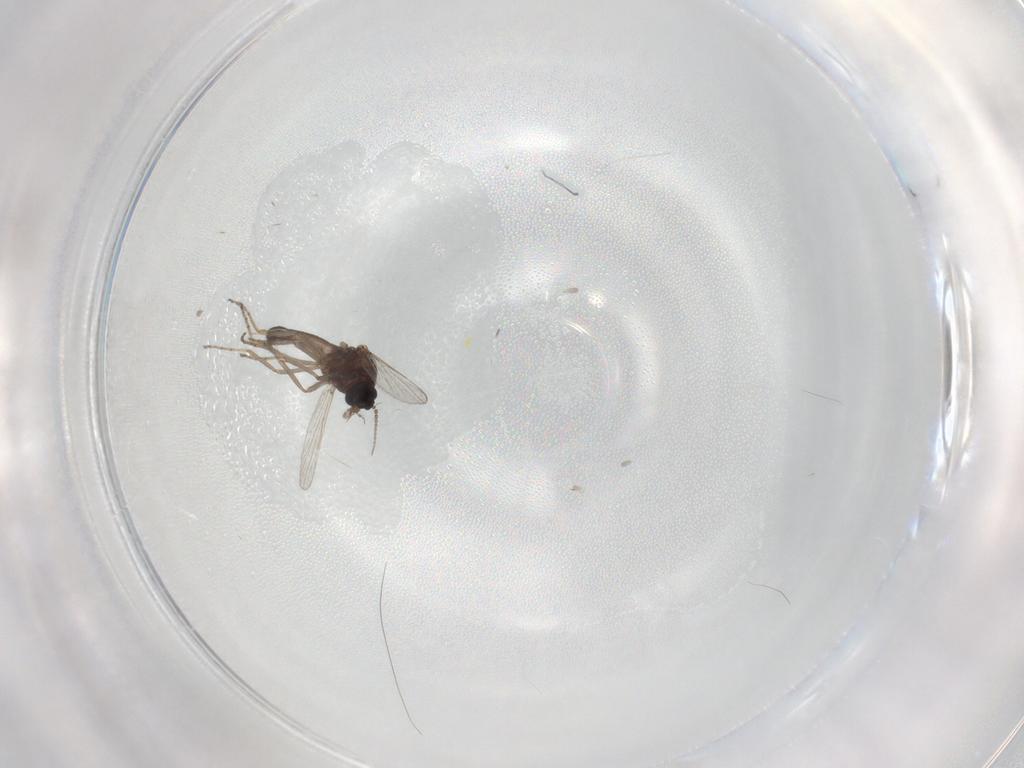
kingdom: Animalia
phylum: Arthropoda
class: Insecta
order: Diptera
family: Ceratopogonidae
